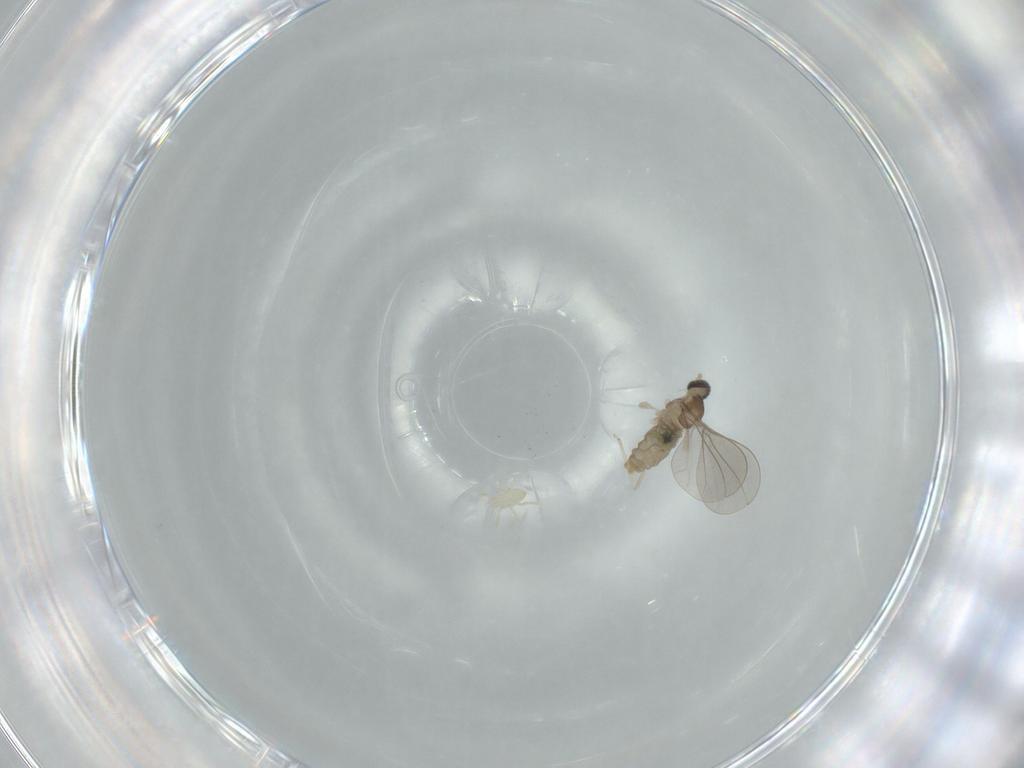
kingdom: Animalia
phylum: Arthropoda
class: Insecta
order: Diptera
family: Cecidomyiidae
